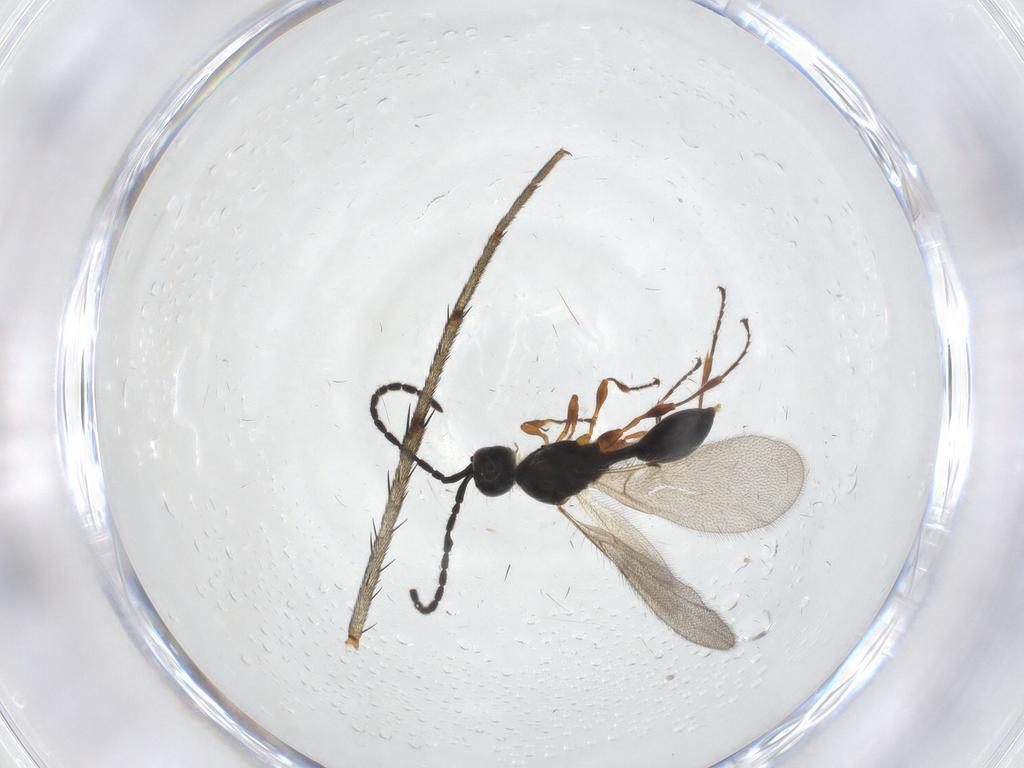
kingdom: Animalia
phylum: Arthropoda
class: Insecta
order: Hymenoptera
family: Diapriidae
